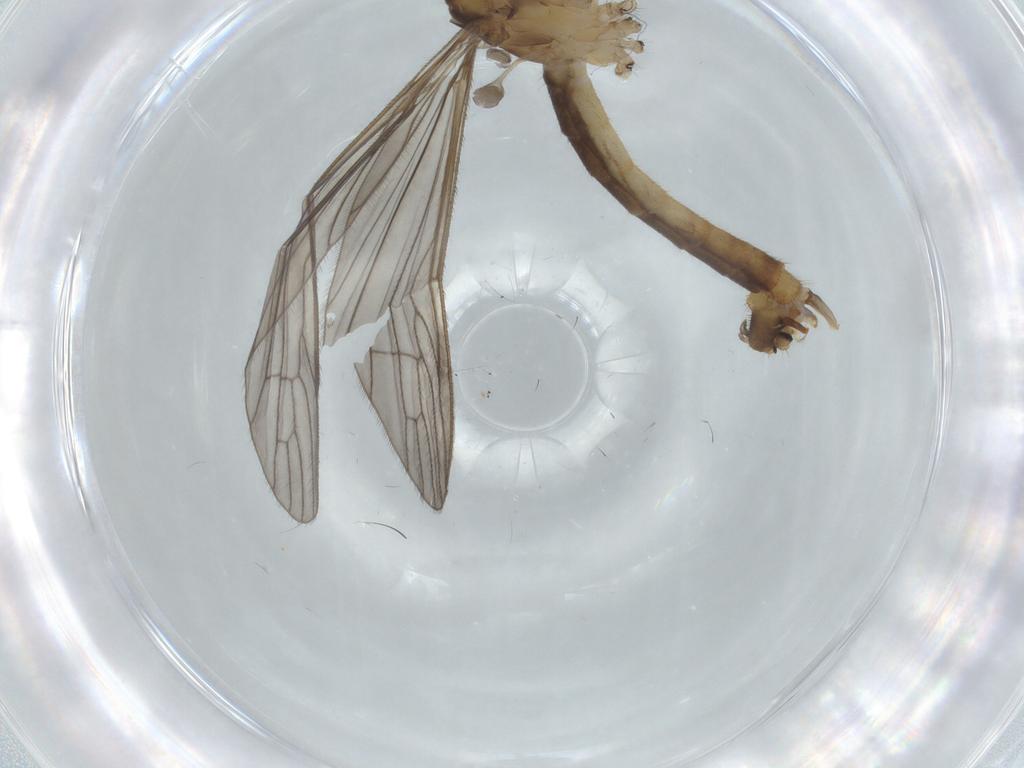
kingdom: Animalia
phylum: Arthropoda
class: Insecta
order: Diptera
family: Limoniidae
